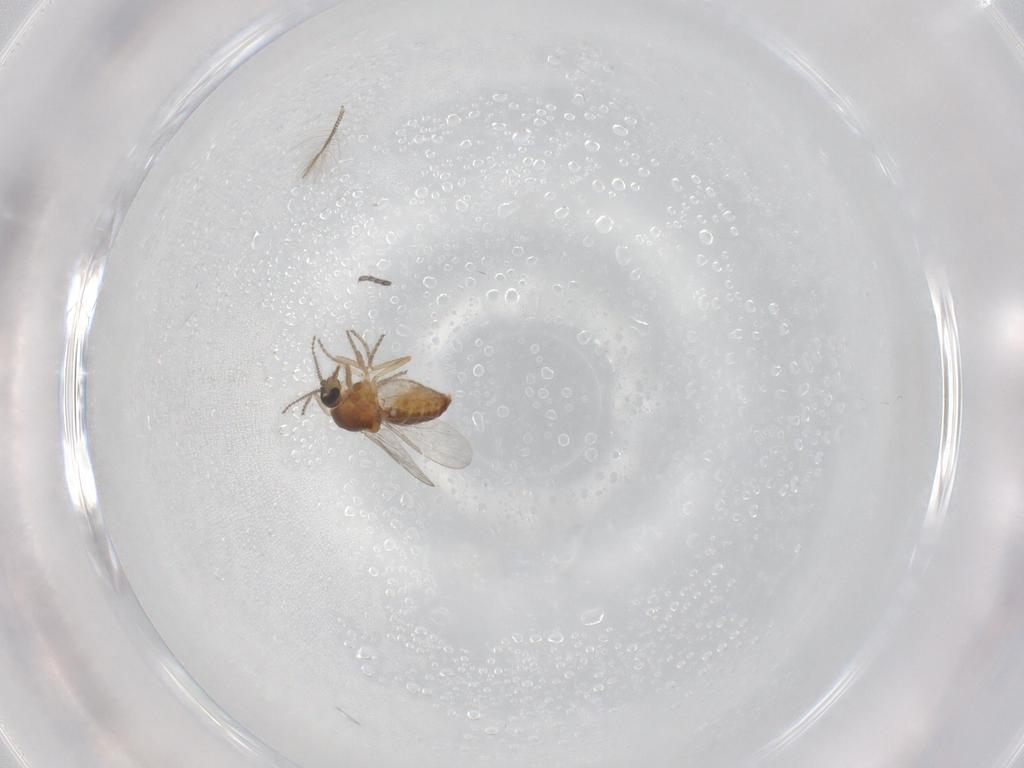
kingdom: Animalia
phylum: Arthropoda
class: Insecta
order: Diptera
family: Ceratopogonidae
